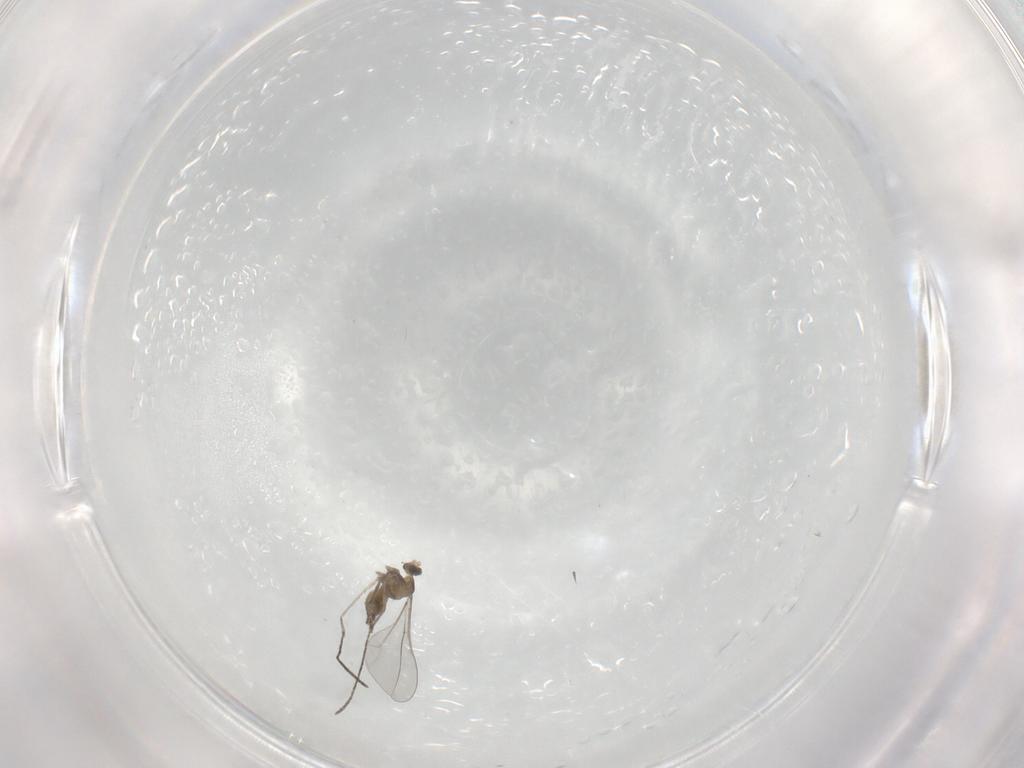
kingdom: Animalia
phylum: Arthropoda
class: Insecta
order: Diptera
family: Cecidomyiidae
